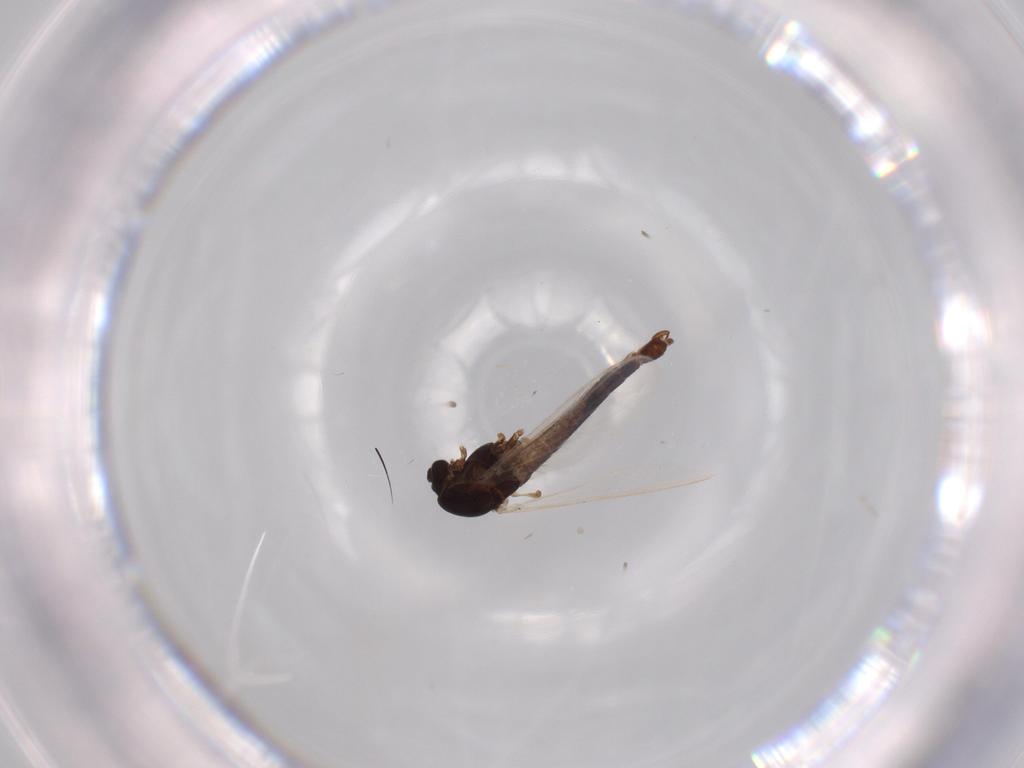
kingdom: Animalia
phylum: Arthropoda
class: Insecta
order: Diptera
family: Chironomidae
